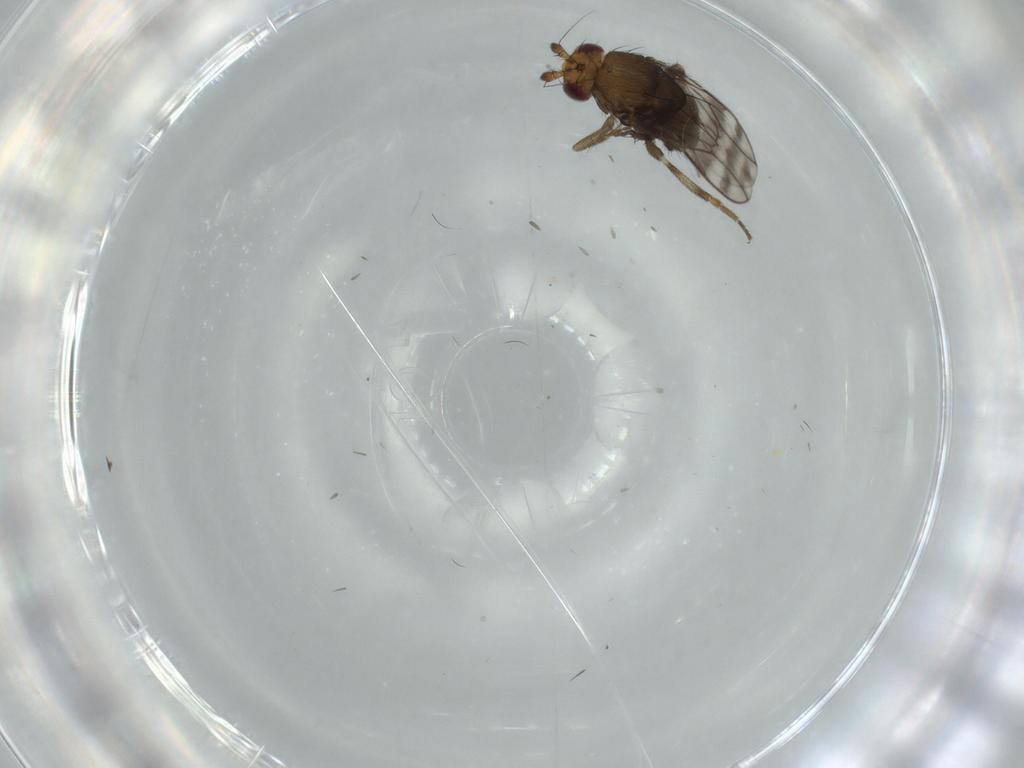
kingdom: Animalia
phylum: Arthropoda
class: Insecta
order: Diptera
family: Sphaeroceridae
